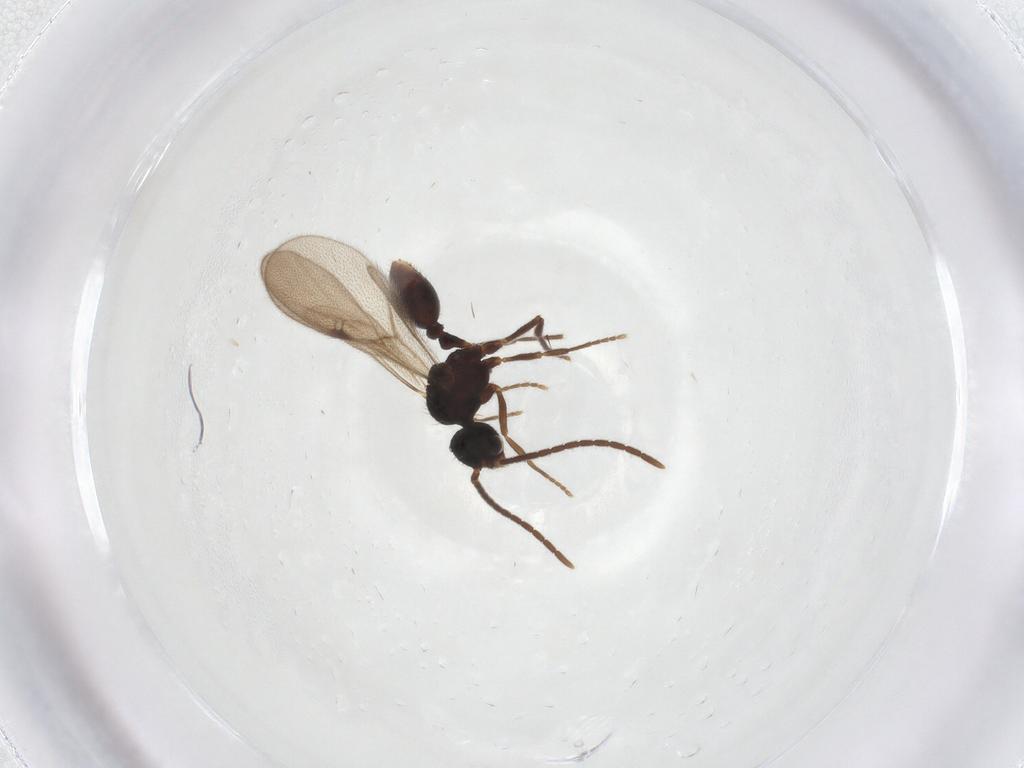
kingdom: Animalia
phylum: Arthropoda
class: Insecta
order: Hymenoptera
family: Formicidae
